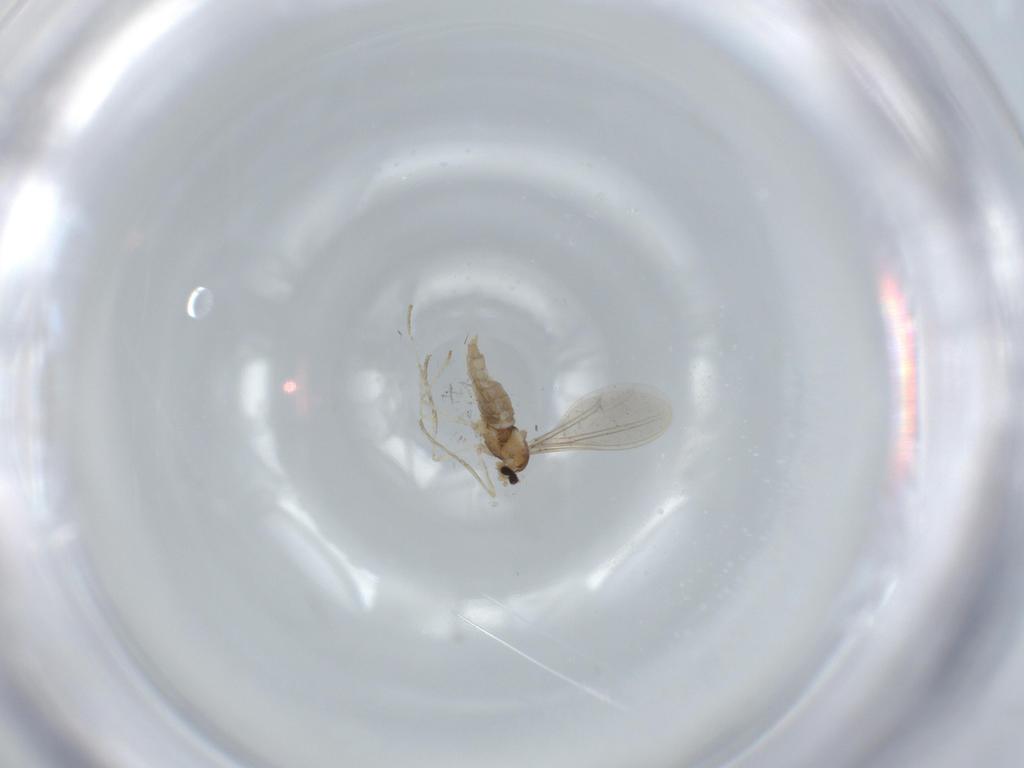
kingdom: Animalia
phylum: Arthropoda
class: Insecta
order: Diptera
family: Cecidomyiidae
